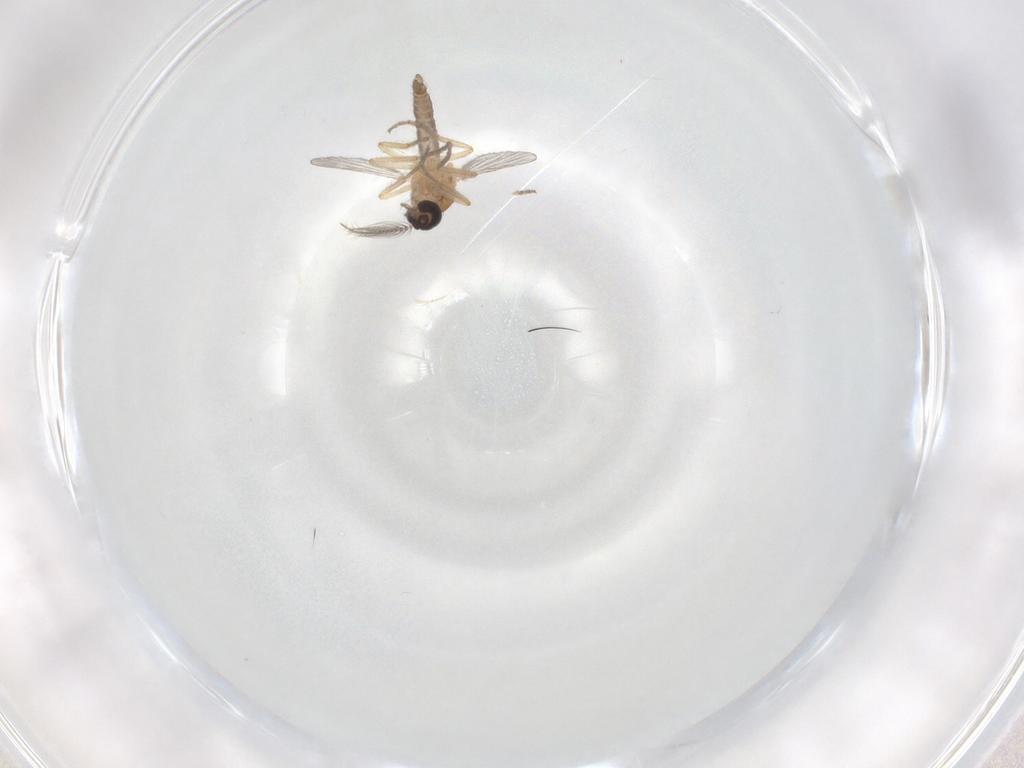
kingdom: Animalia
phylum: Arthropoda
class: Insecta
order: Diptera
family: Ceratopogonidae
